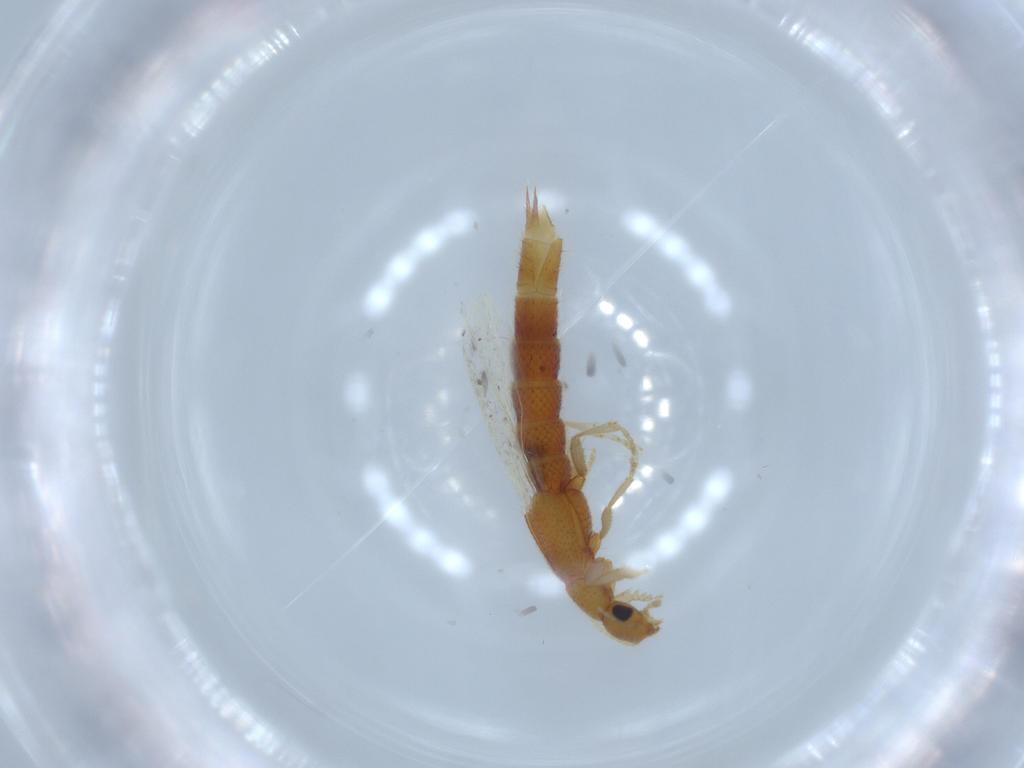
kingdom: Animalia
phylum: Arthropoda
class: Insecta
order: Coleoptera
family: Staphylinidae
